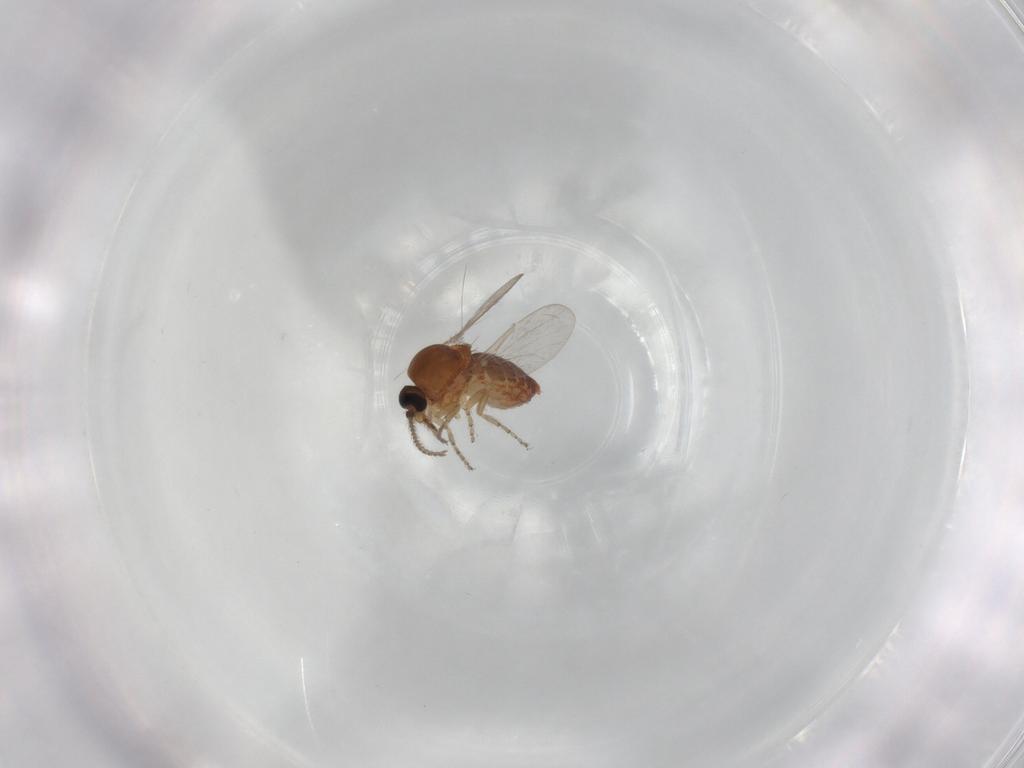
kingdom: Animalia
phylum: Arthropoda
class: Insecta
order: Diptera
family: Ceratopogonidae
